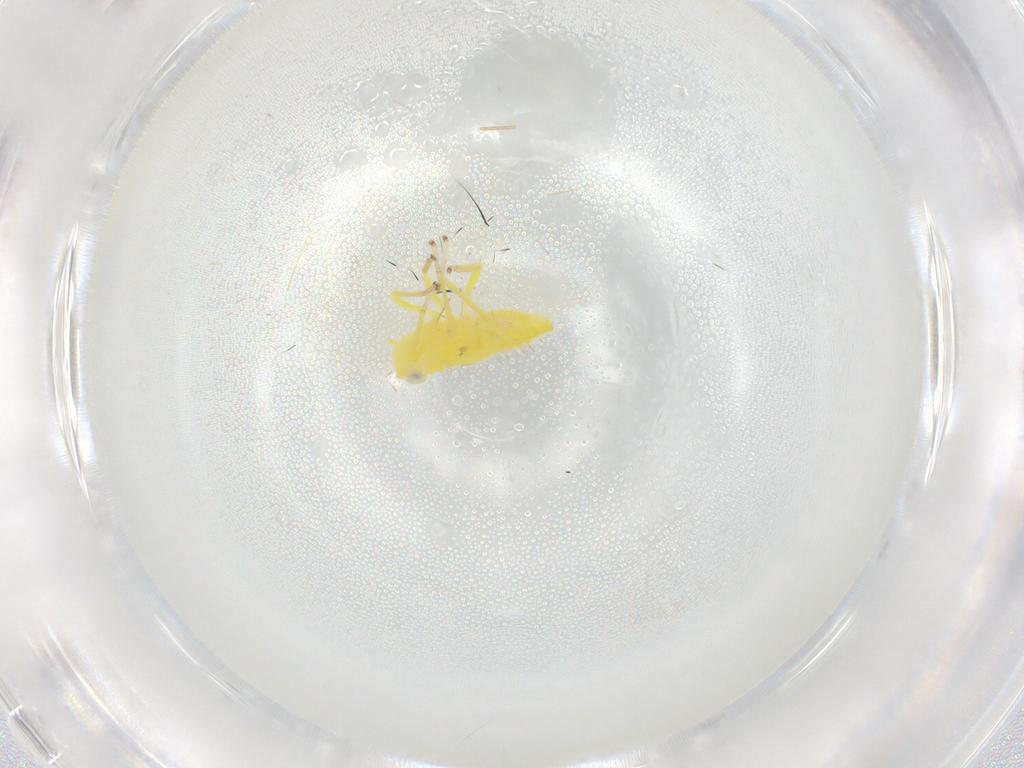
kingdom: Animalia
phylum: Arthropoda
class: Insecta
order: Hemiptera
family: Cicadellidae
